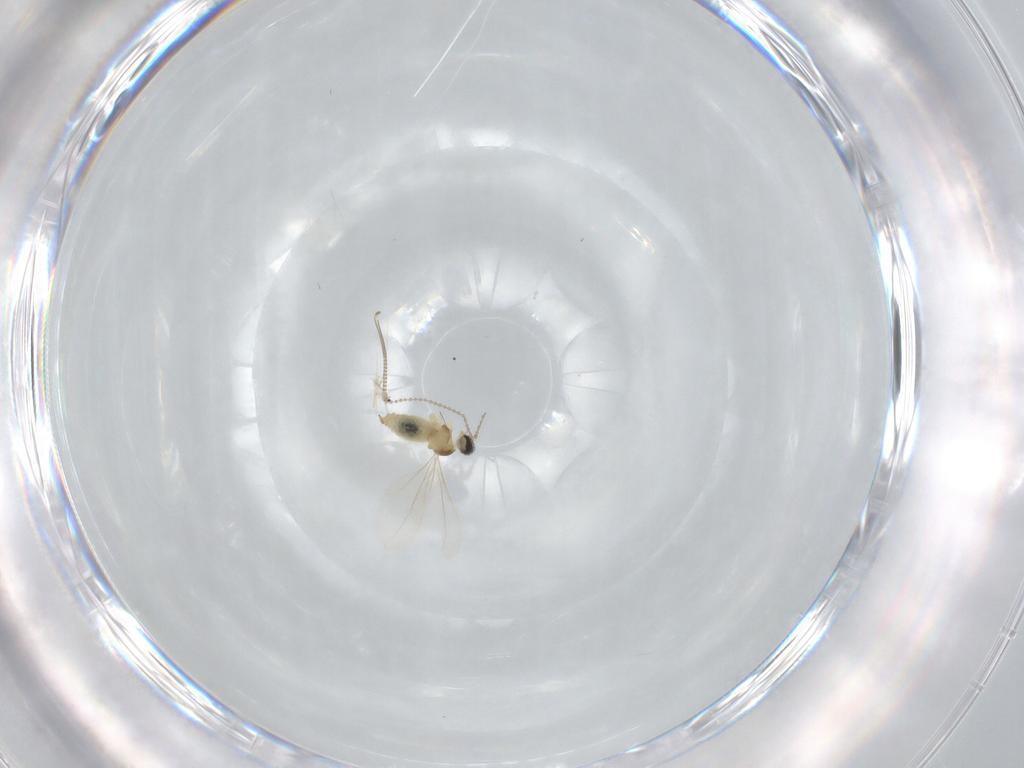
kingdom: Animalia
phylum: Arthropoda
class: Insecta
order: Diptera
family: Chironomidae
